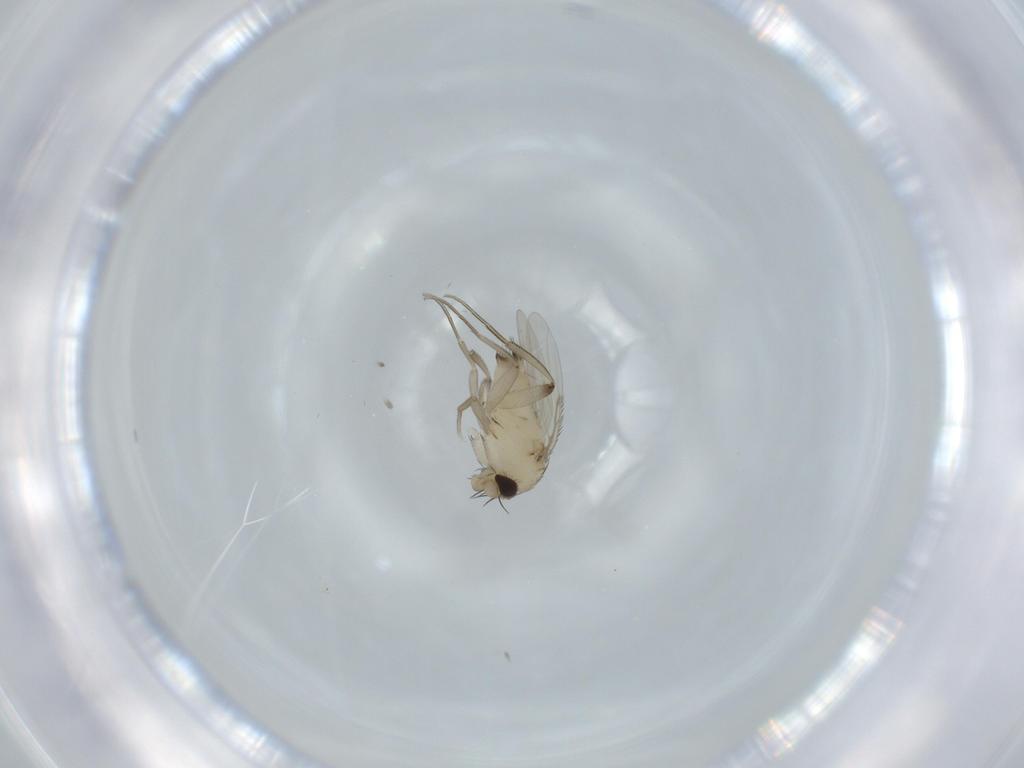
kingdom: Animalia
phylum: Arthropoda
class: Insecta
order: Diptera
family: Phoridae
